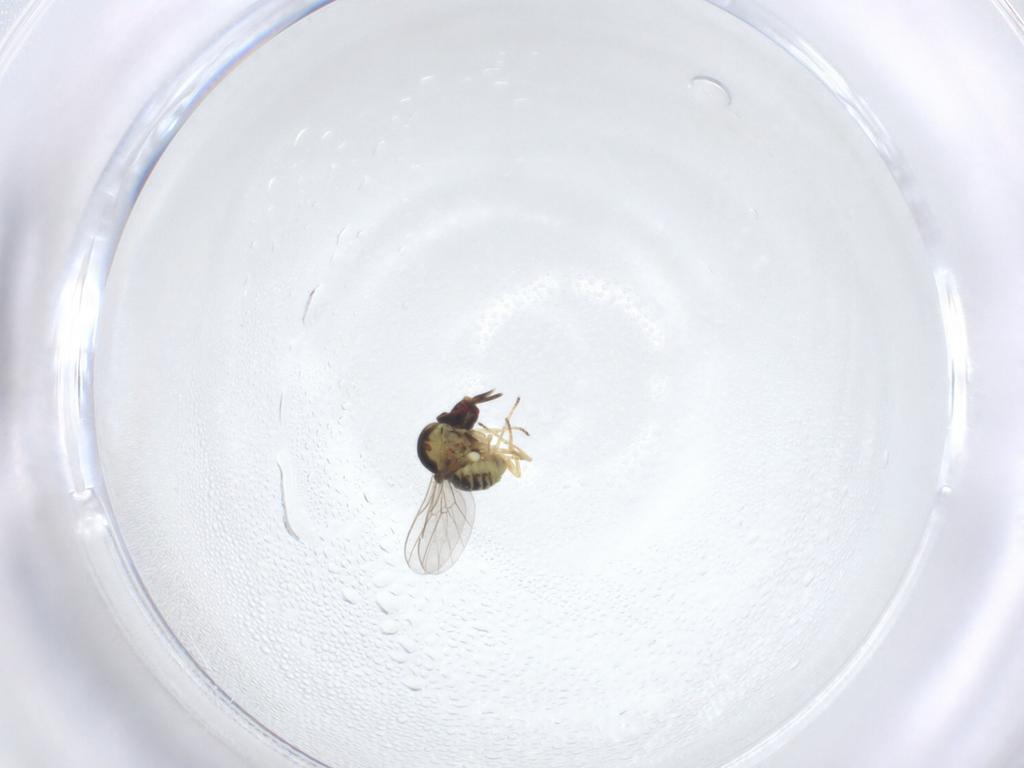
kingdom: Animalia
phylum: Arthropoda
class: Insecta
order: Diptera
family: Mythicomyiidae
